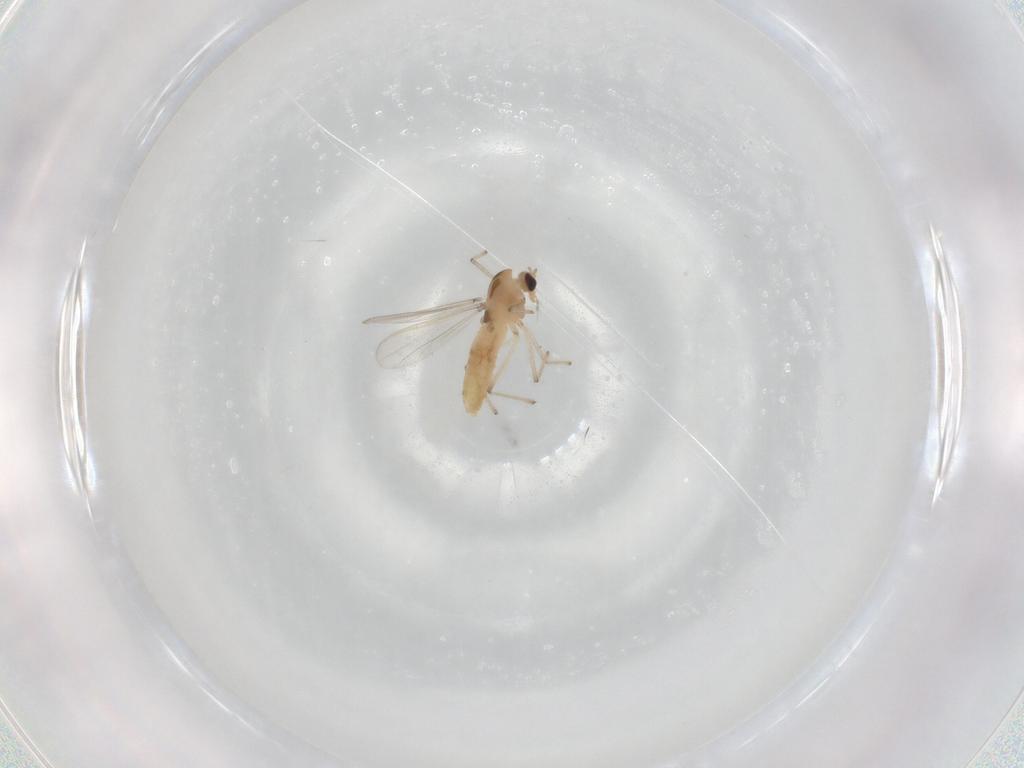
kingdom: Animalia
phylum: Arthropoda
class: Insecta
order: Diptera
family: Chironomidae
